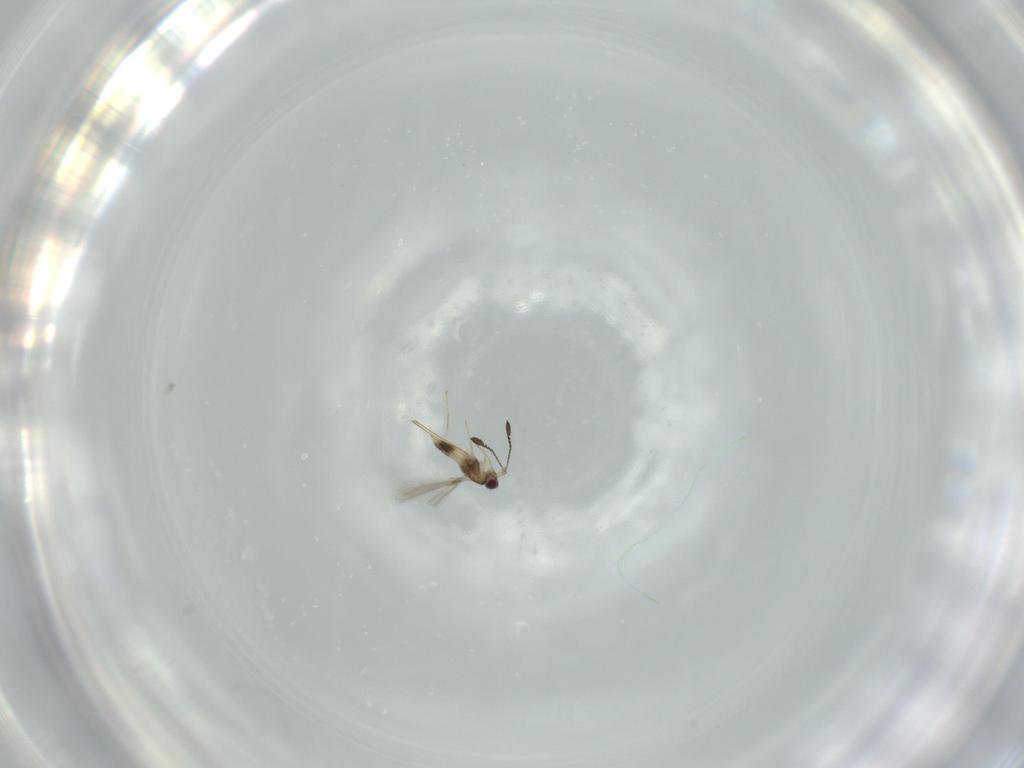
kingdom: Animalia
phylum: Arthropoda
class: Insecta
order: Hymenoptera
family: Mymaridae
